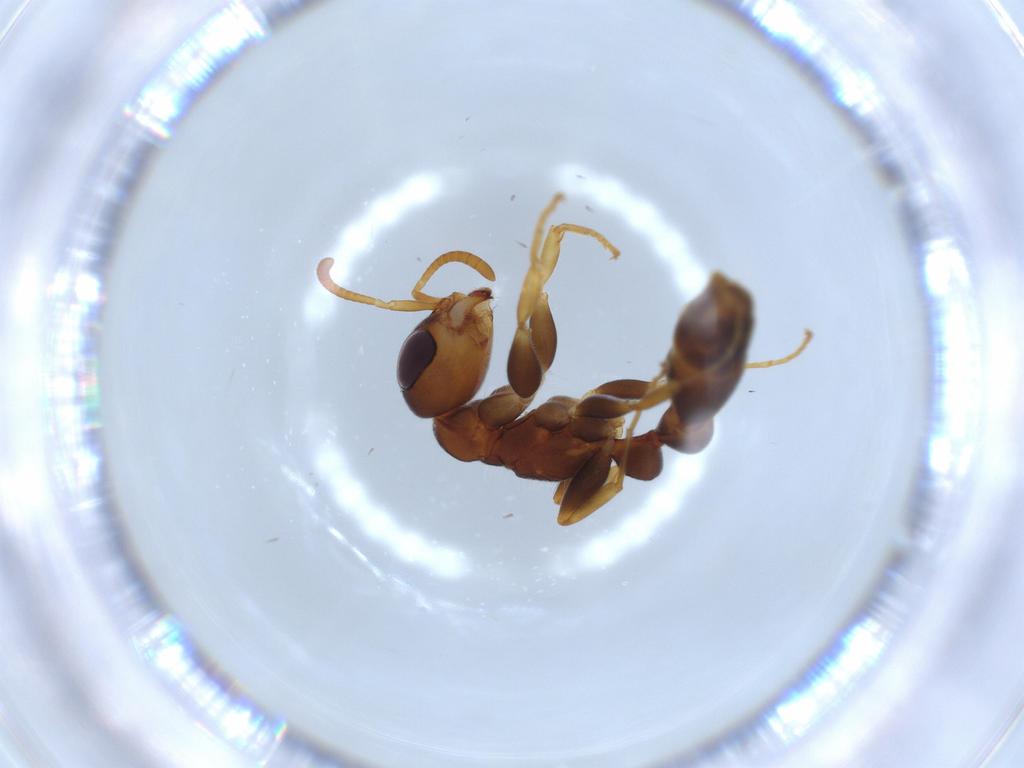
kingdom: Animalia
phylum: Arthropoda
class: Insecta
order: Hymenoptera
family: Formicidae
